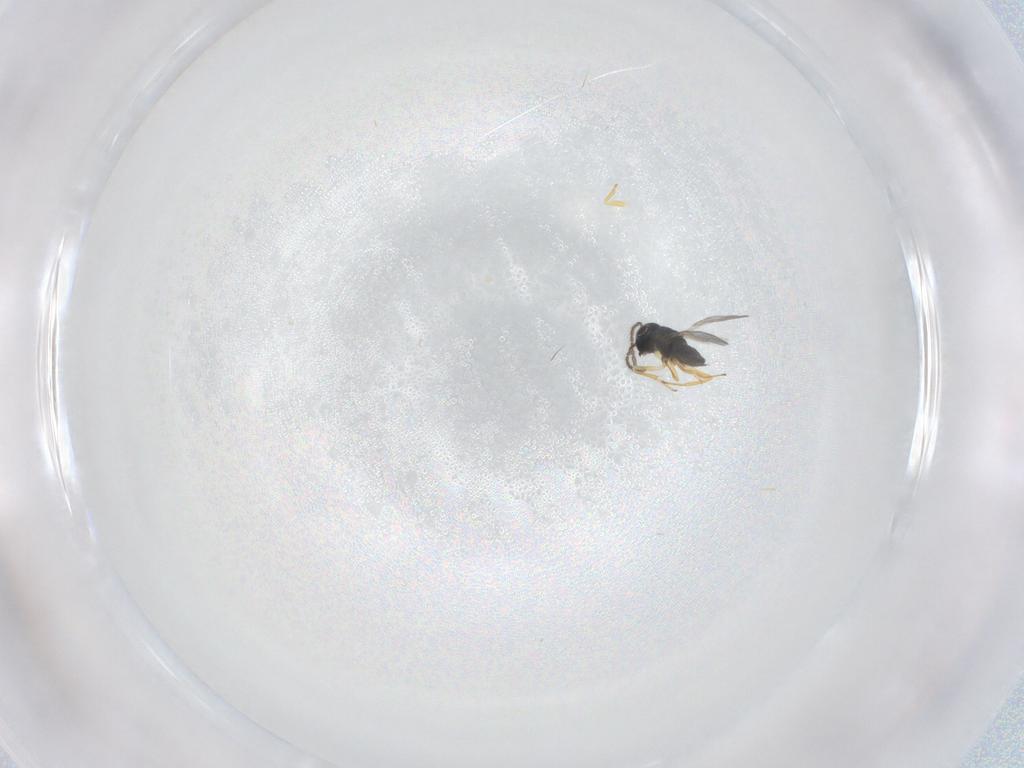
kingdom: Animalia
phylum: Arthropoda
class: Insecta
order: Hymenoptera
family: Encyrtidae
